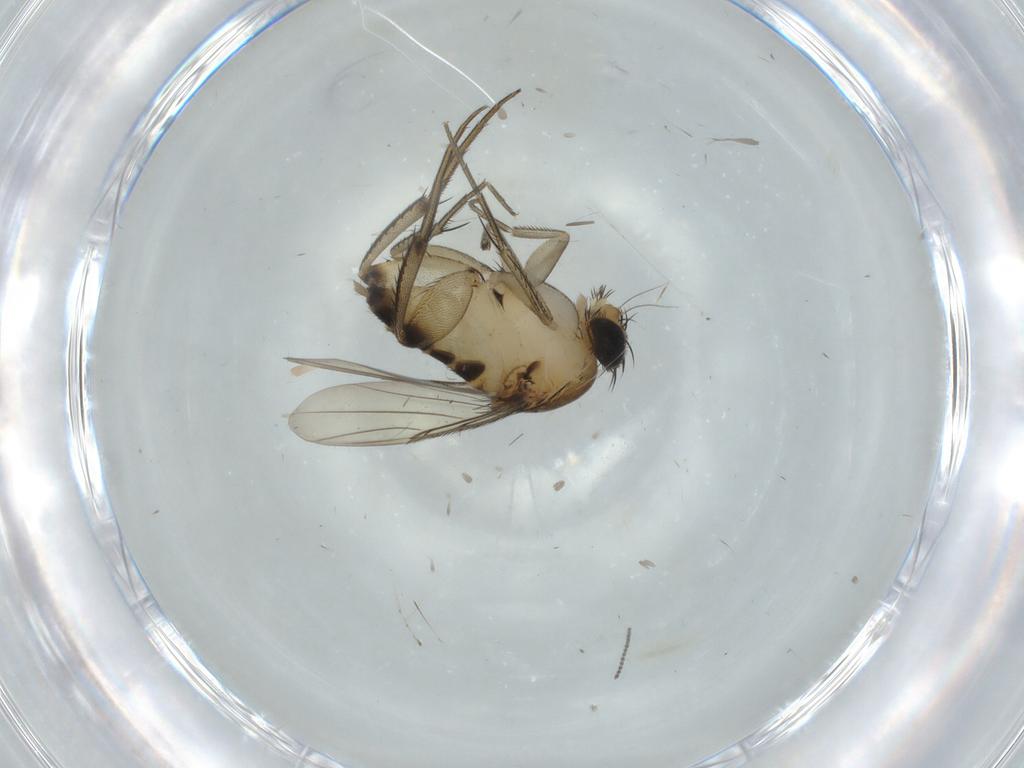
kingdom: Animalia
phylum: Arthropoda
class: Insecta
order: Diptera
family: Phoridae
